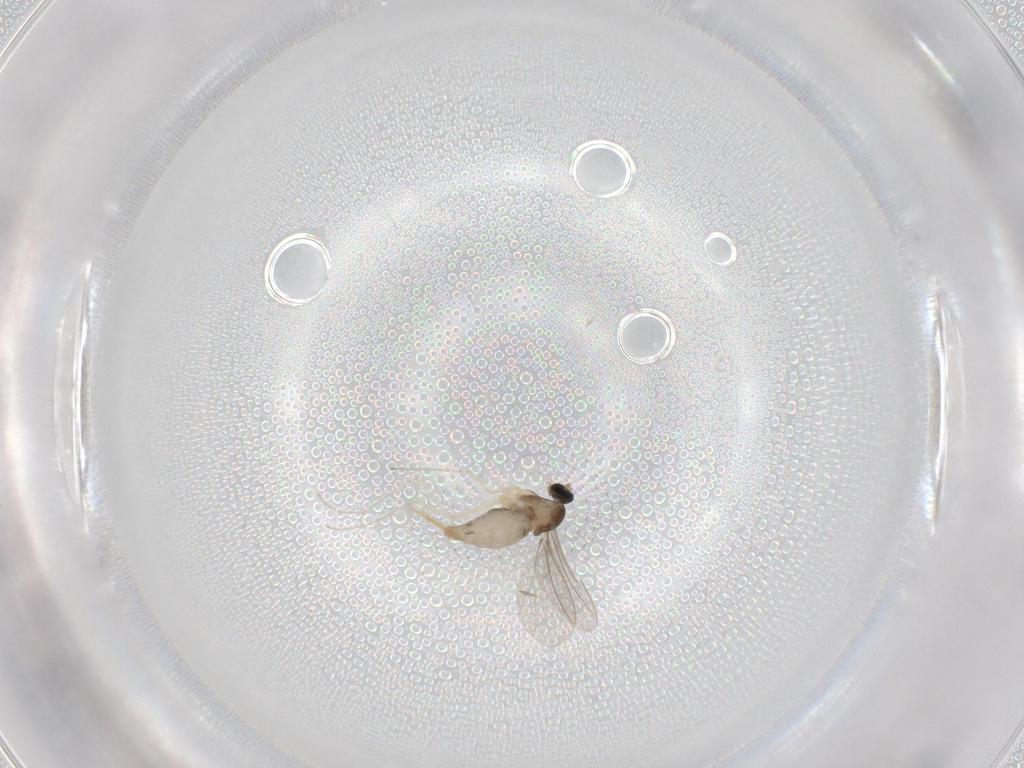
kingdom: Animalia
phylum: Arthropoda
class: Insecta
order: Diptera
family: Cecidomyiidae
